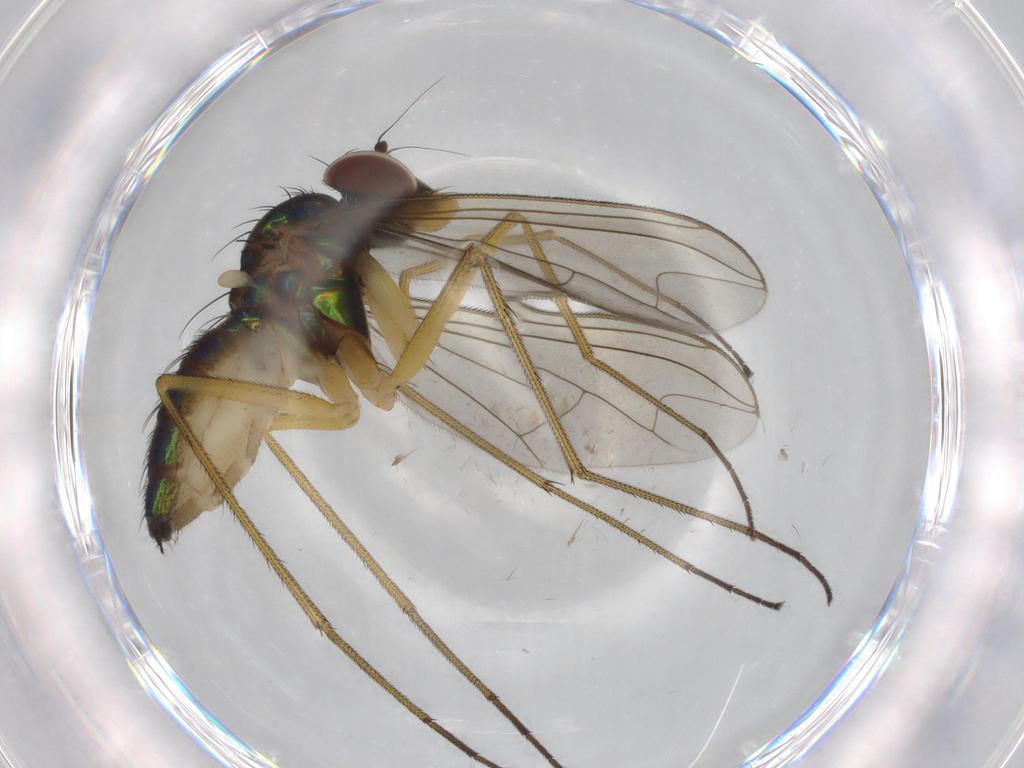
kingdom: Animalia
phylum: Arthropoda
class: Insecta
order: Diptera
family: Dolichopodidae
